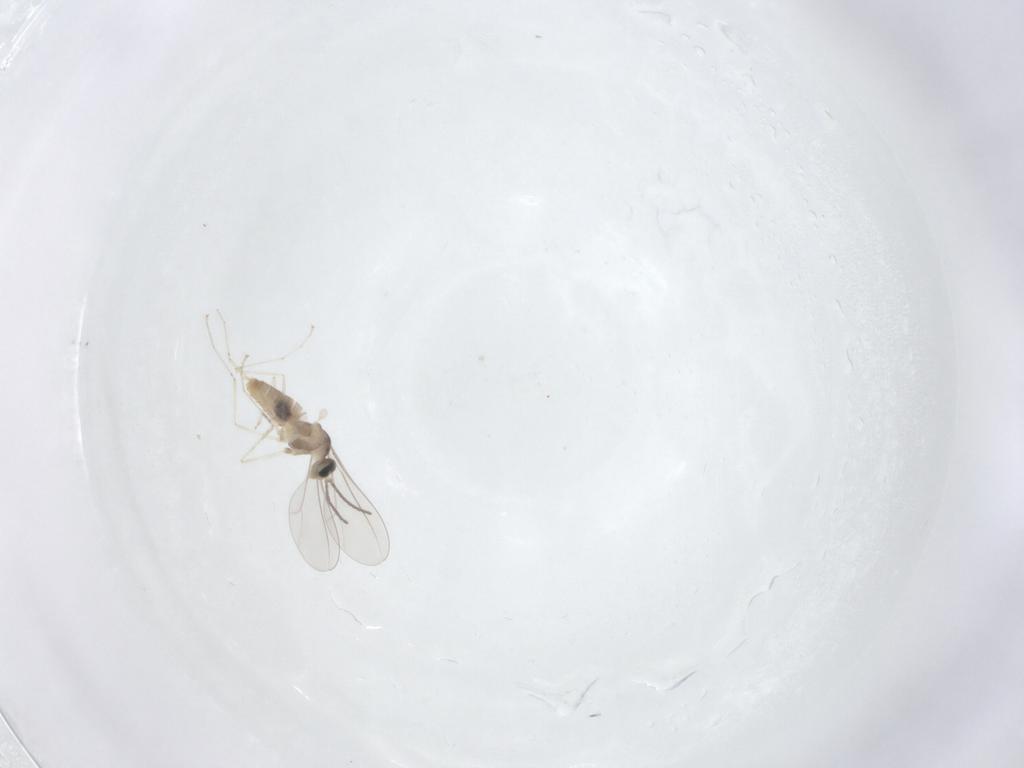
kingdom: Animalia
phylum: Arthropoda
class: Insecta
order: Diptera
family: Cecidomyiidae
